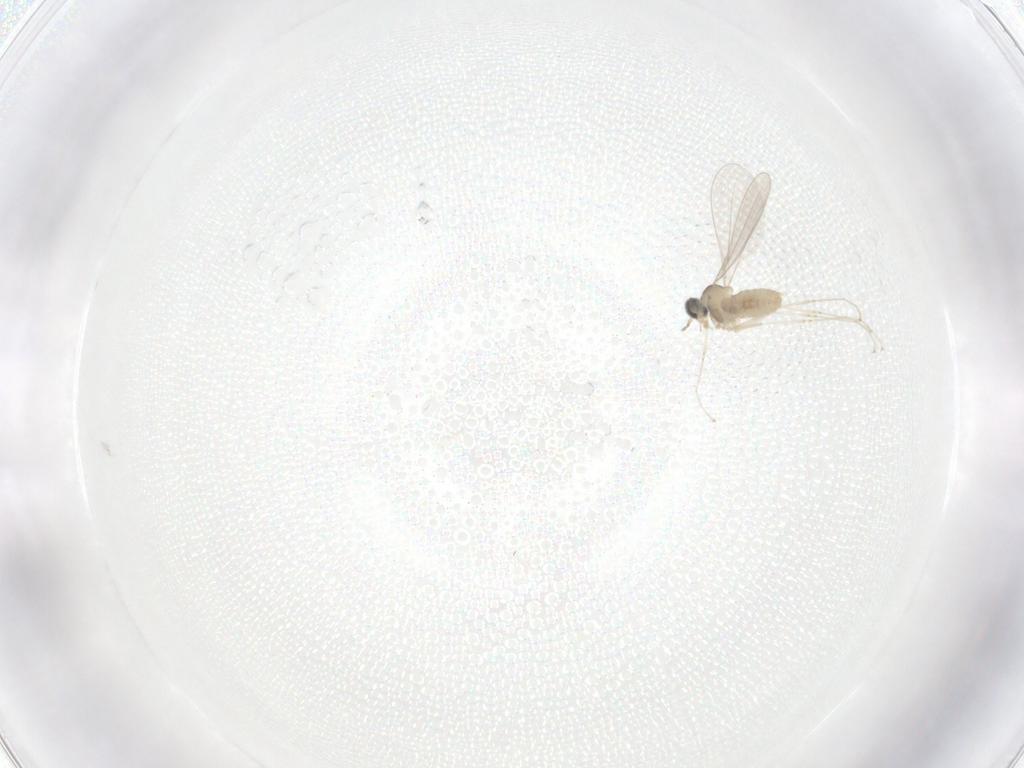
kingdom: Animalia
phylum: Arthropoda
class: Insecta
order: Diptera
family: Cecidomyiidae
